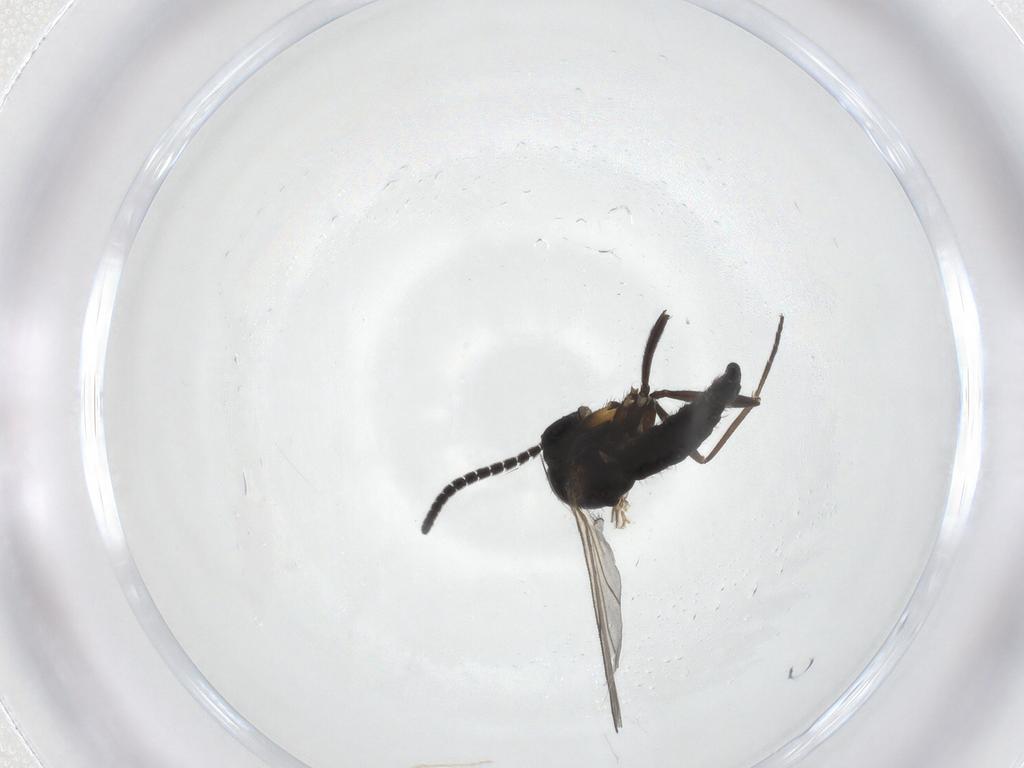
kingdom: Animalia
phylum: Arthropoda
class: Insecta
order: Diptera
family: Sciaridae
